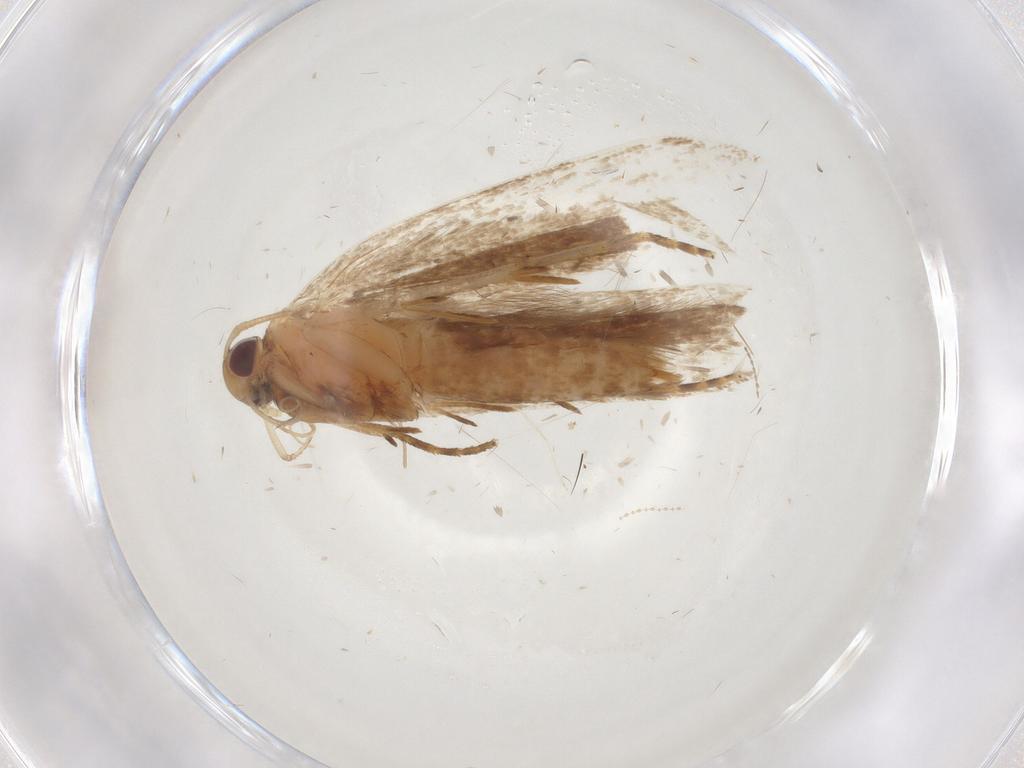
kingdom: Animalia
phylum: Arthropoda
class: Insecta
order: Lepidoptera
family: Gelechiidae
